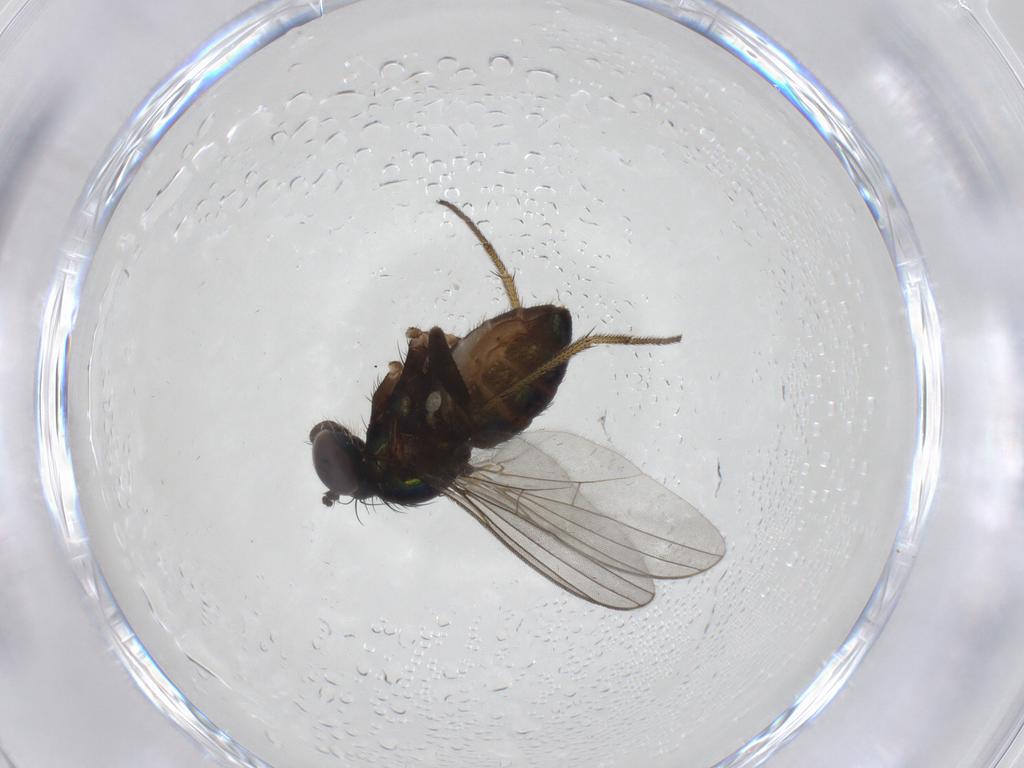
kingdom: Animalia
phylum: Arthropoda
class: Insecta
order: Diptera
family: Dolichopodidae
